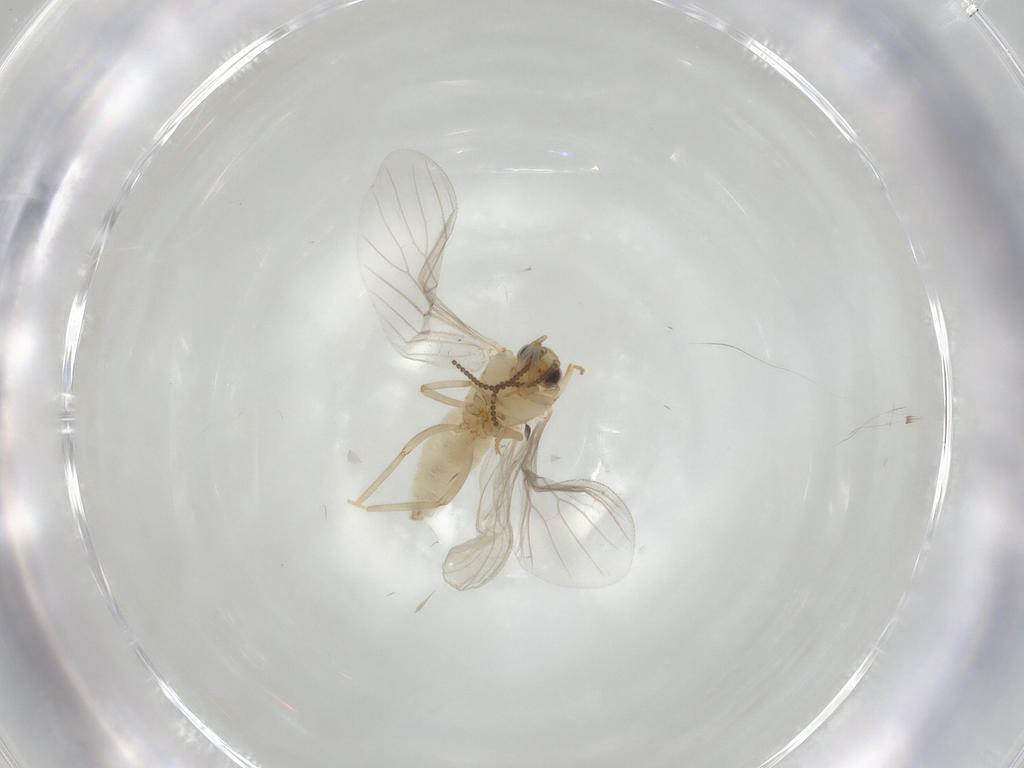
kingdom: Animalia
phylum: Arthropoda
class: Insecta
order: Neuroptera
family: Coniopterygidae
